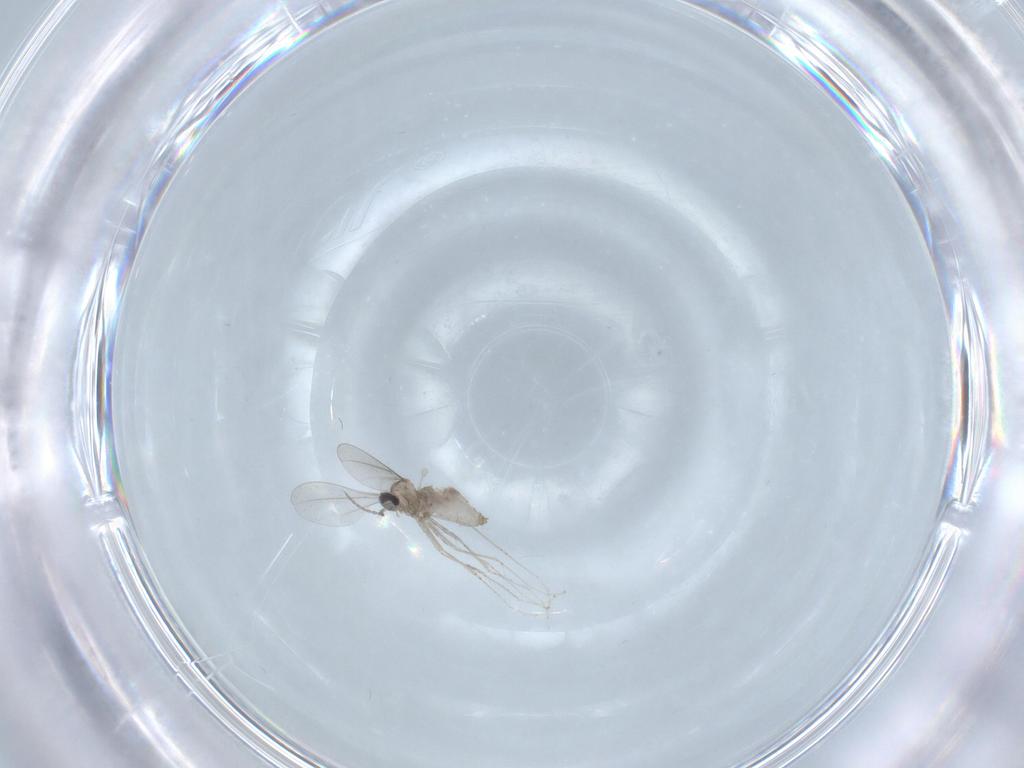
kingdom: Animalia
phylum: Arthropoda
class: Insecta
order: Diptera
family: Cecidomyiidae
